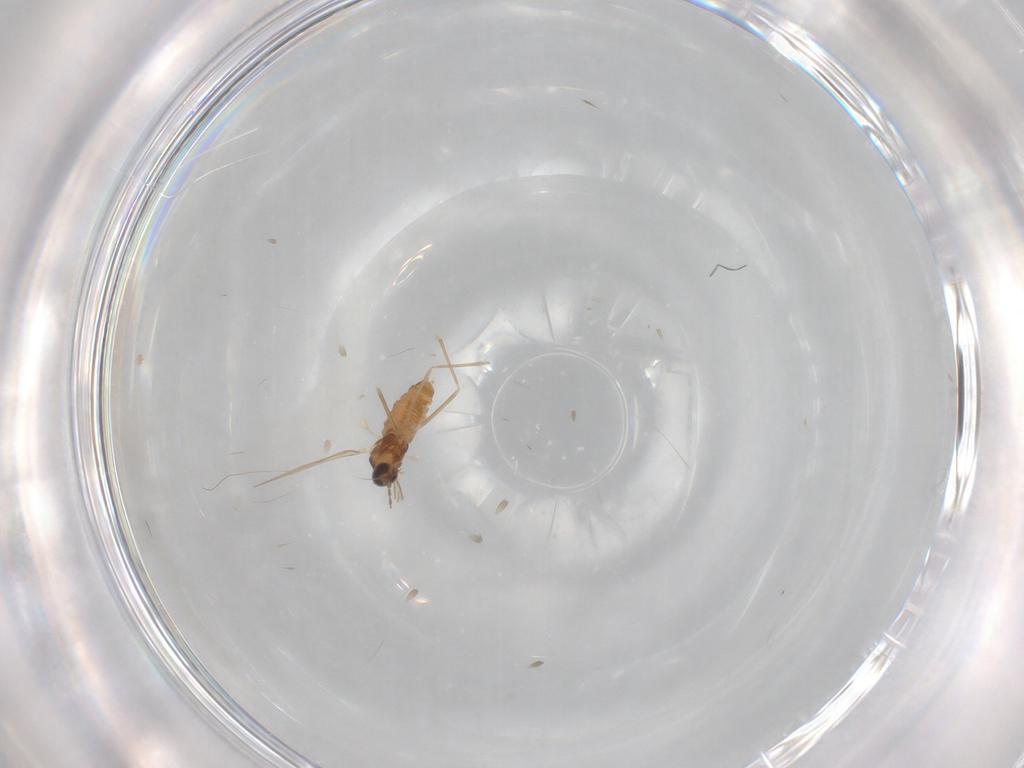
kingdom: Animalia
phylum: Arthropoda
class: Insecta
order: Diptera
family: Cecidomyiidae
